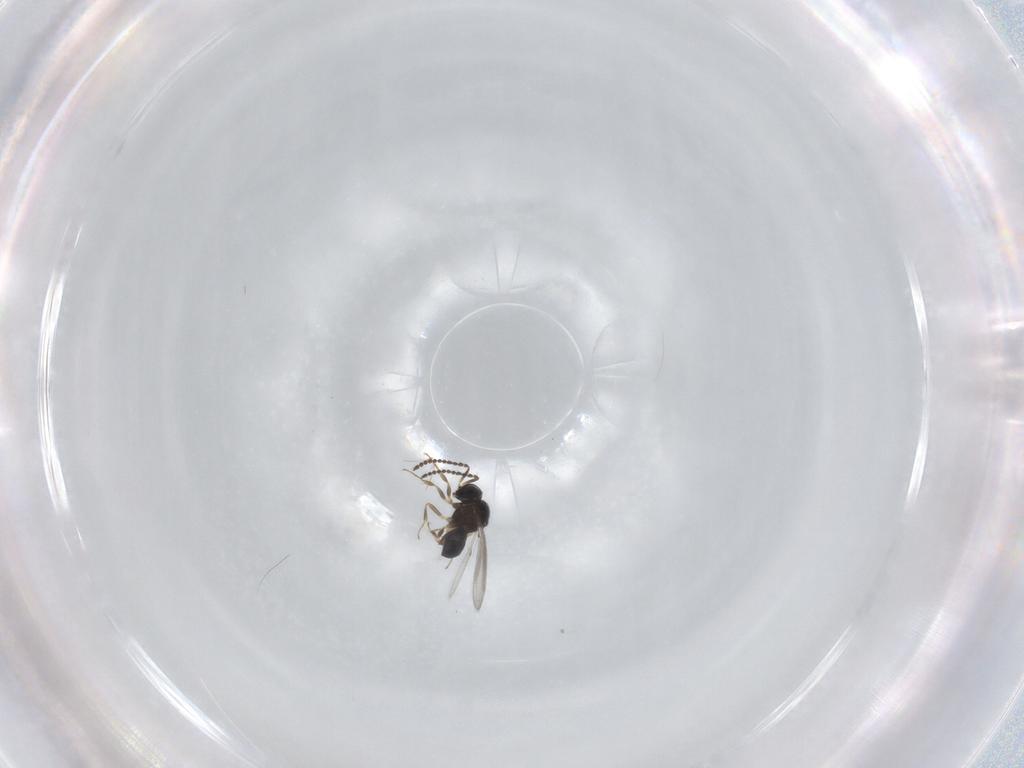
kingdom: Animalia
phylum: Arthropoda
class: Insecta
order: Hymenoptera
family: Scelionidae
